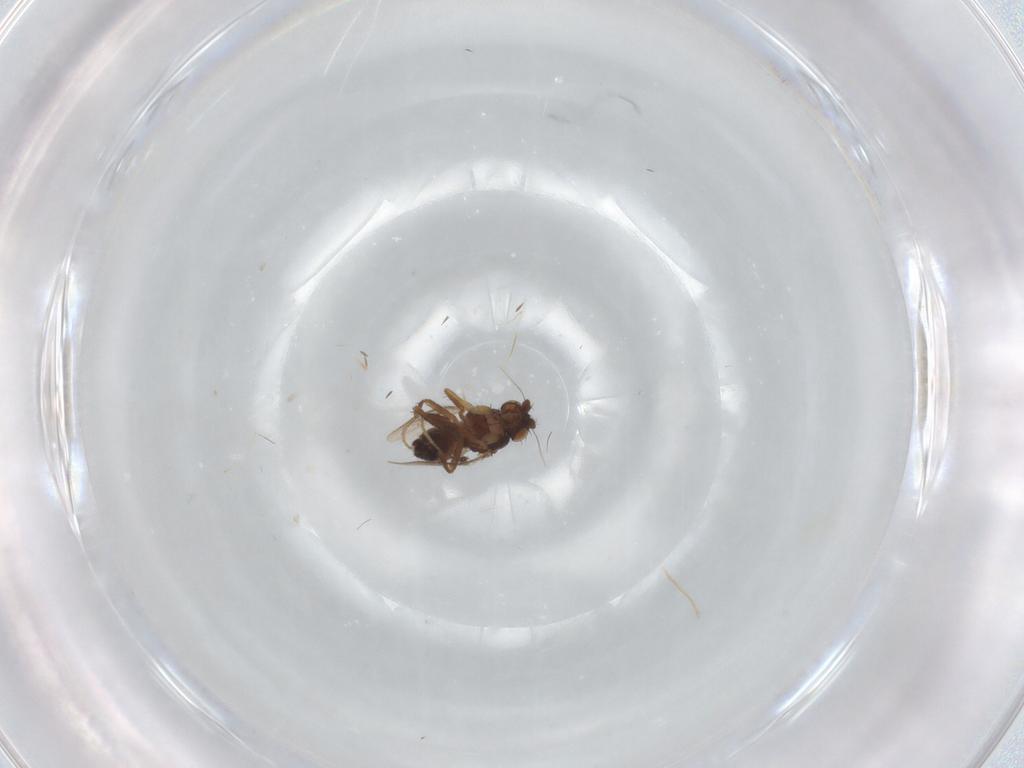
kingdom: Animalia
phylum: Arthropoda
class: Insecta
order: Diptera
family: Sphaeroceridae
